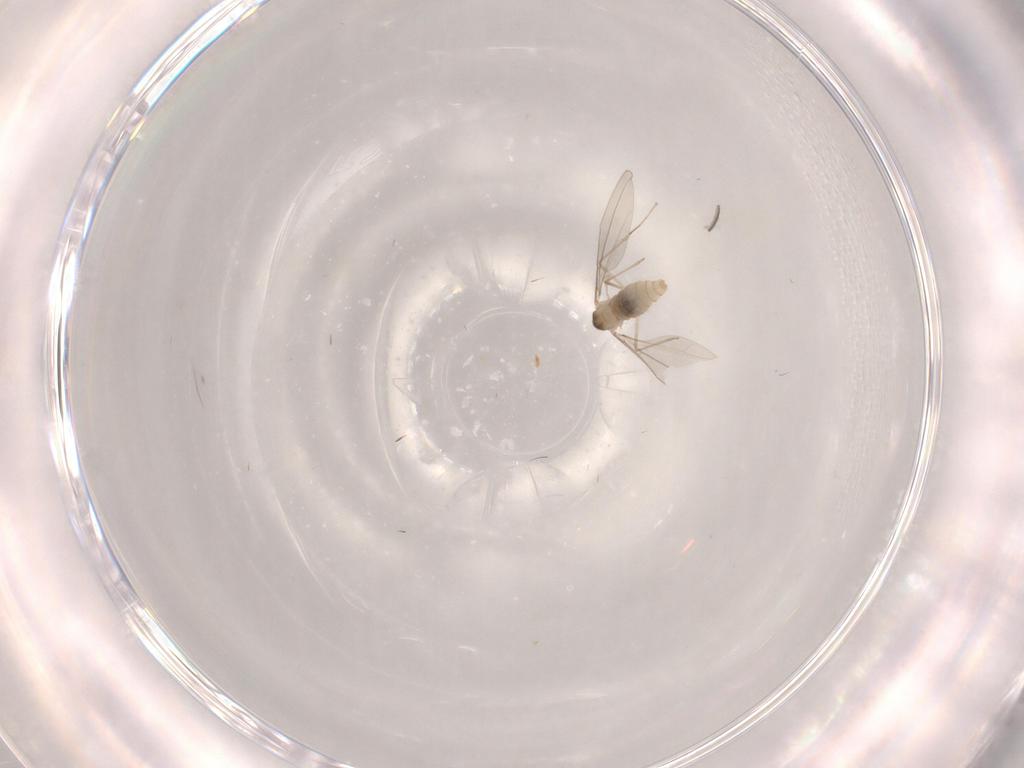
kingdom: Animalia
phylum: Arthropoda
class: Insecta
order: Diptera
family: Cecidomyiidae
